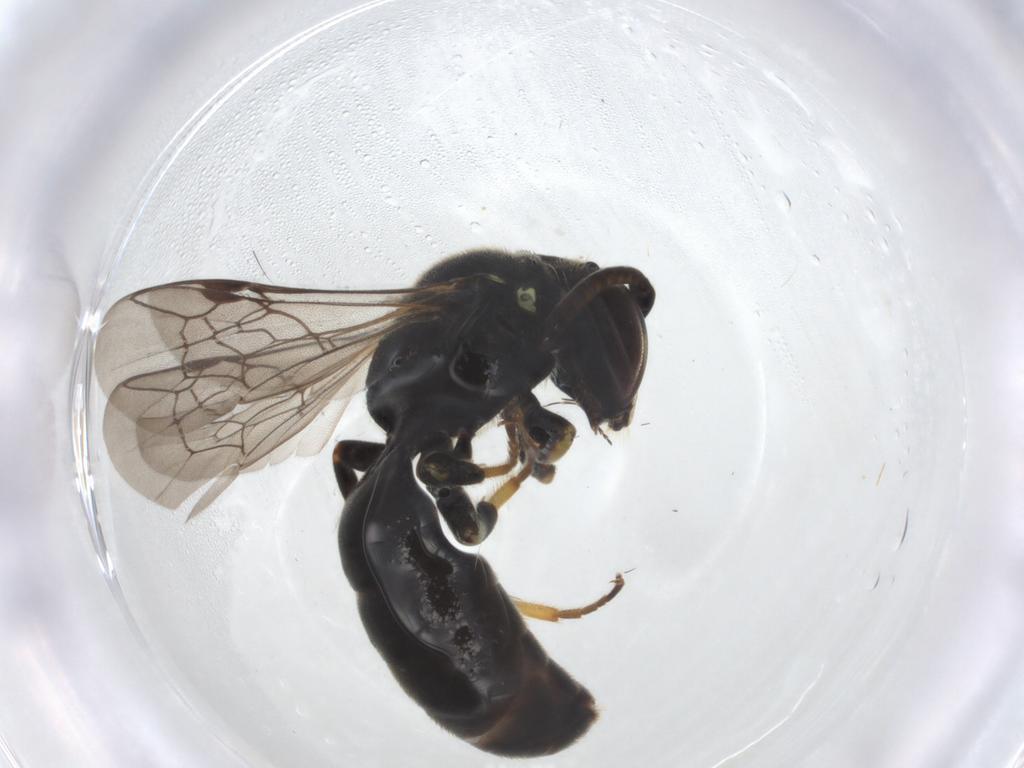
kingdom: Animalia
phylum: Arthropoda
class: Insecta
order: Hymenoptera
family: Colletidae
